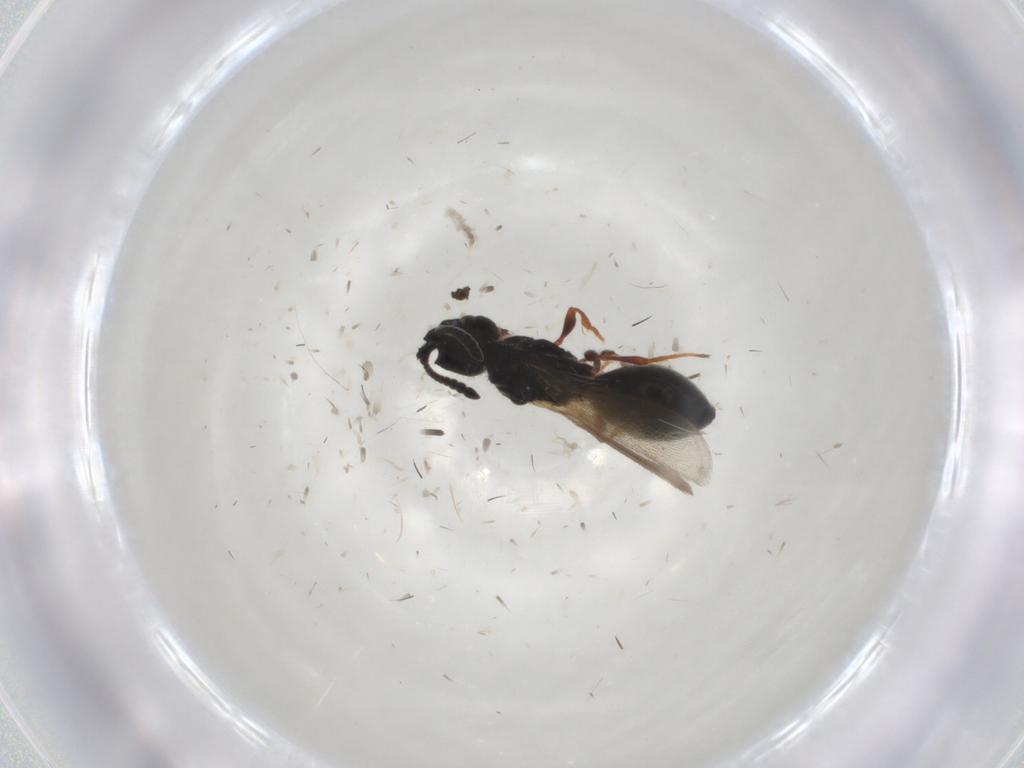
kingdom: Animalia
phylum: Arthropoda
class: Insecta
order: Hymenoptera
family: Diapriidae
